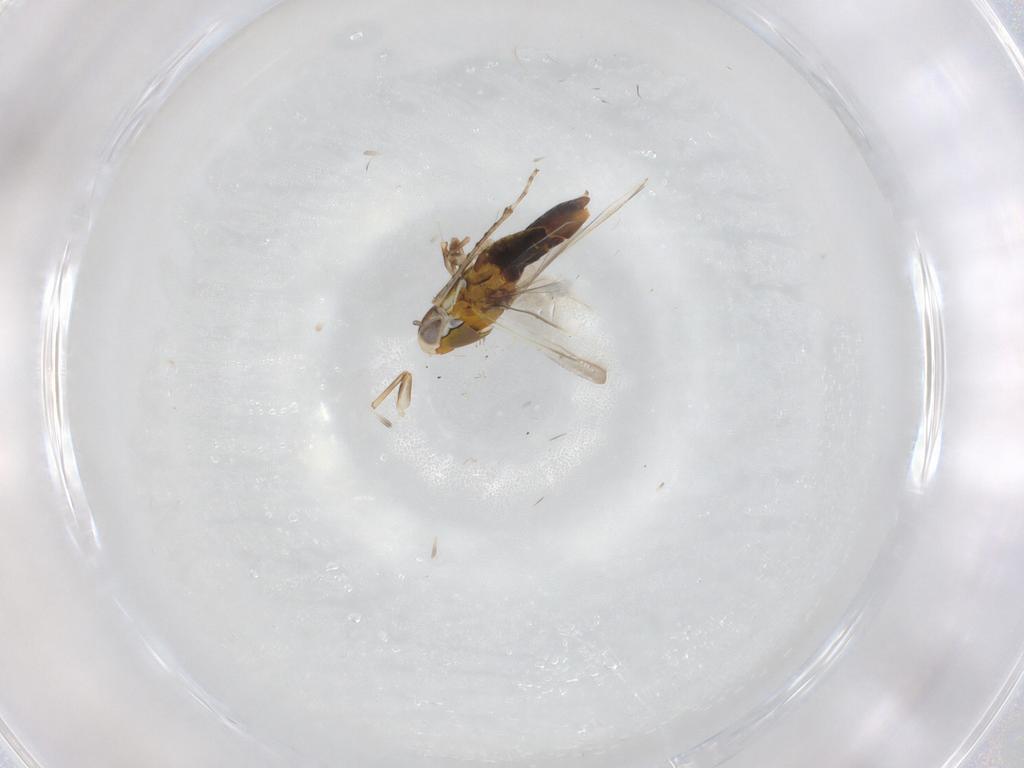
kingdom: Animalia
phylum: Arthropoda
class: Insecta
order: Hemiptera
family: Cicadellidae
